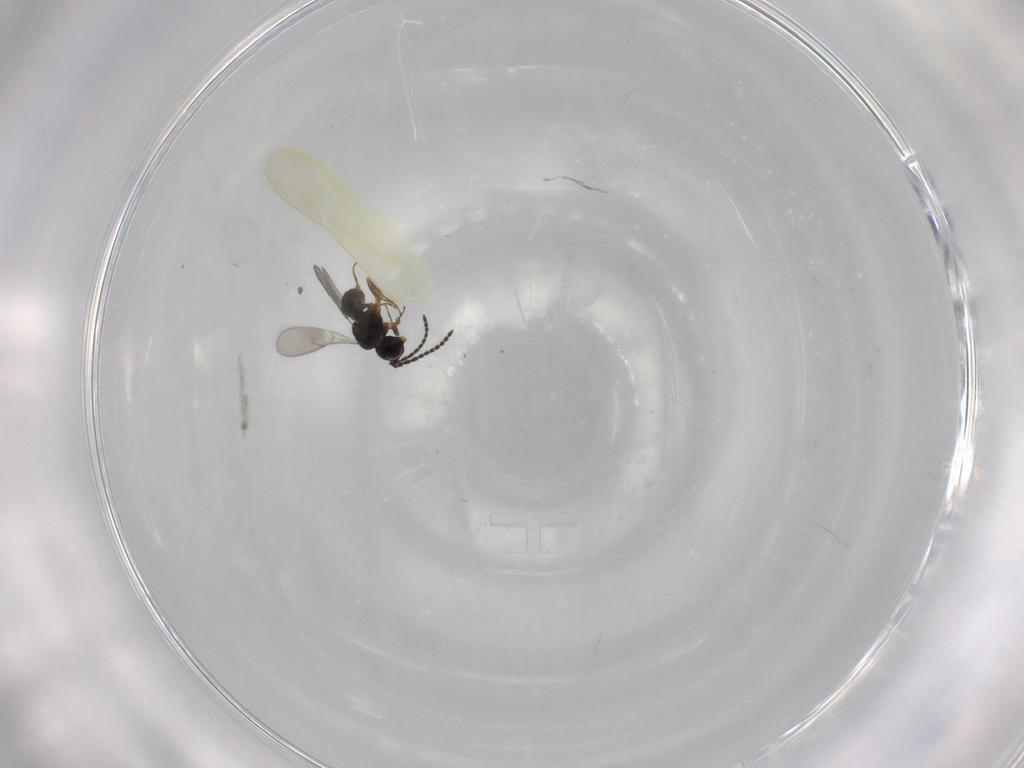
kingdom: Animalia
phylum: Arthropoda
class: Insecta
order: Hymenoptera
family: Scelionidae
